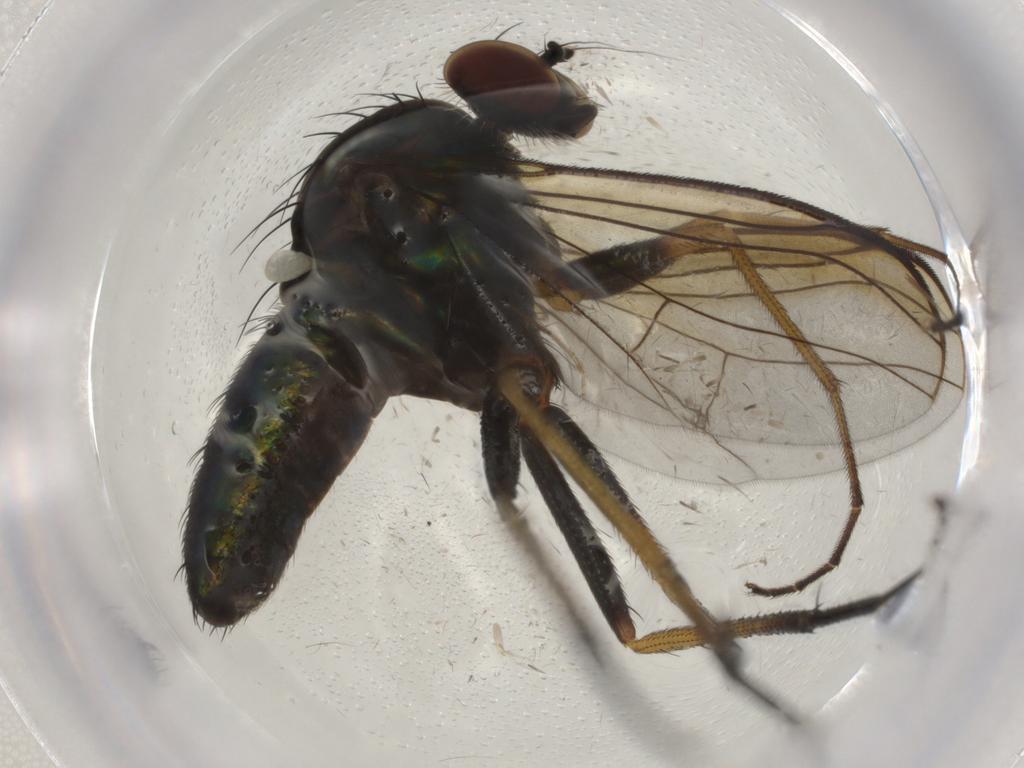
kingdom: Animalia
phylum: Arthropoda
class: Insecta
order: Diptera
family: Dolichopodidae
